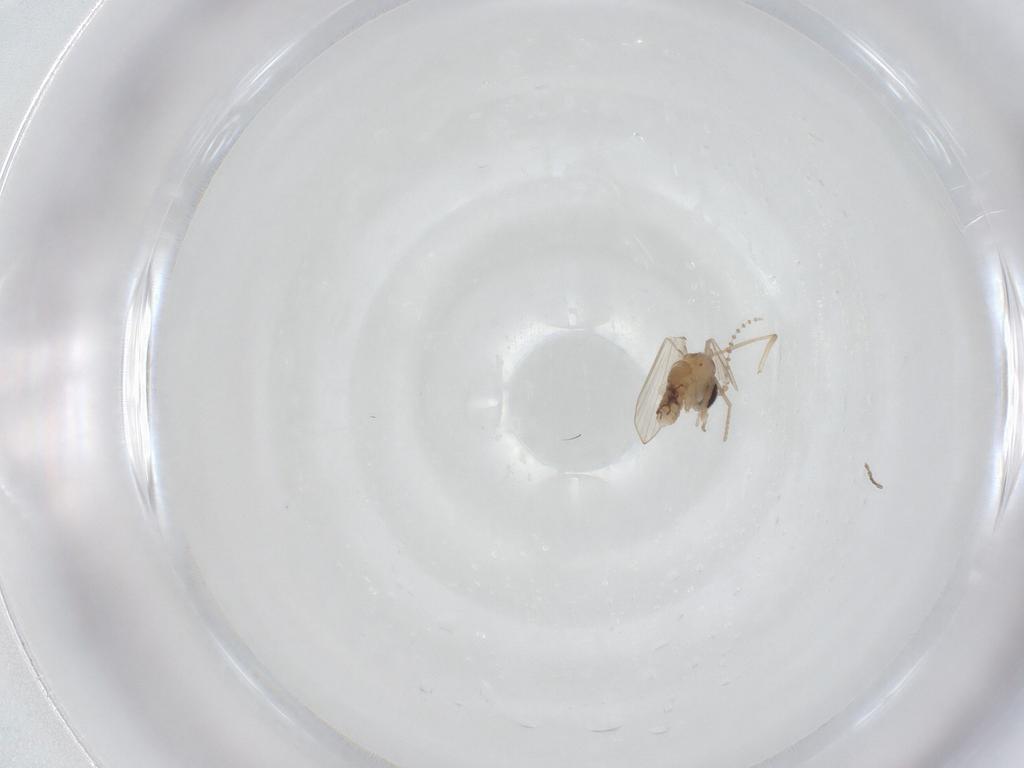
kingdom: Animalia
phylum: Arthropoda
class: Insecta
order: Diptera
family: Psychodidae
